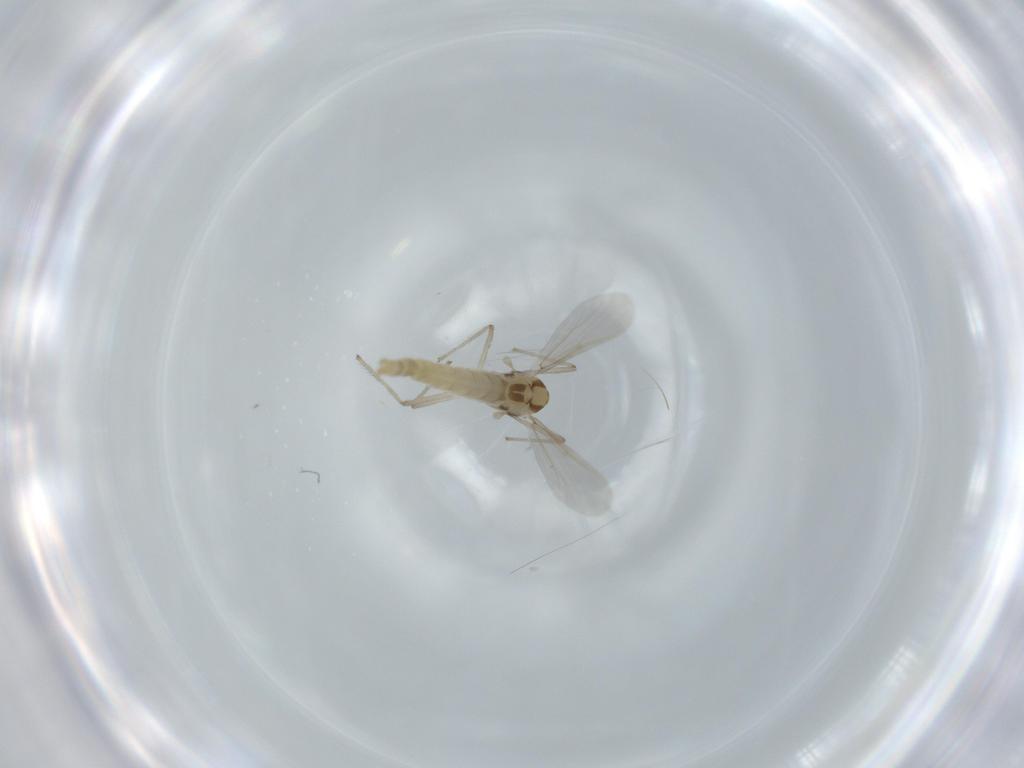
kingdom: Animalia
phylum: Arthropoda
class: Insecta
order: Diptera
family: Chironomidae
